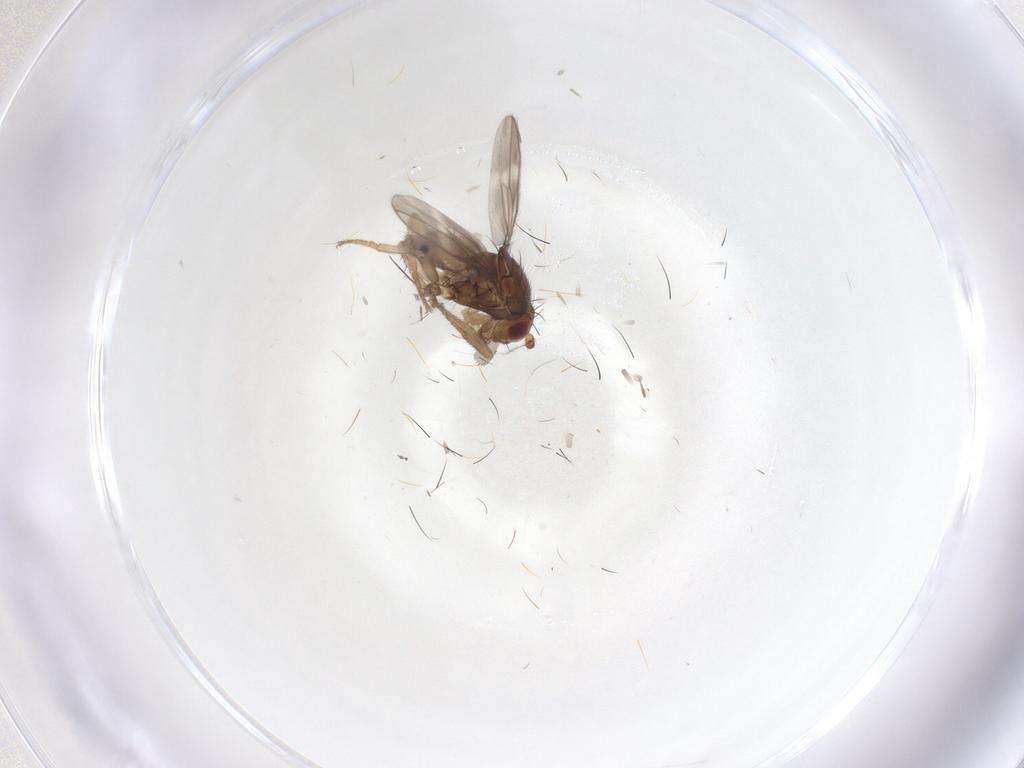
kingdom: Animalia
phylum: Arthropoda
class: Insecta
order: Diptera
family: Sphaeroceridae
